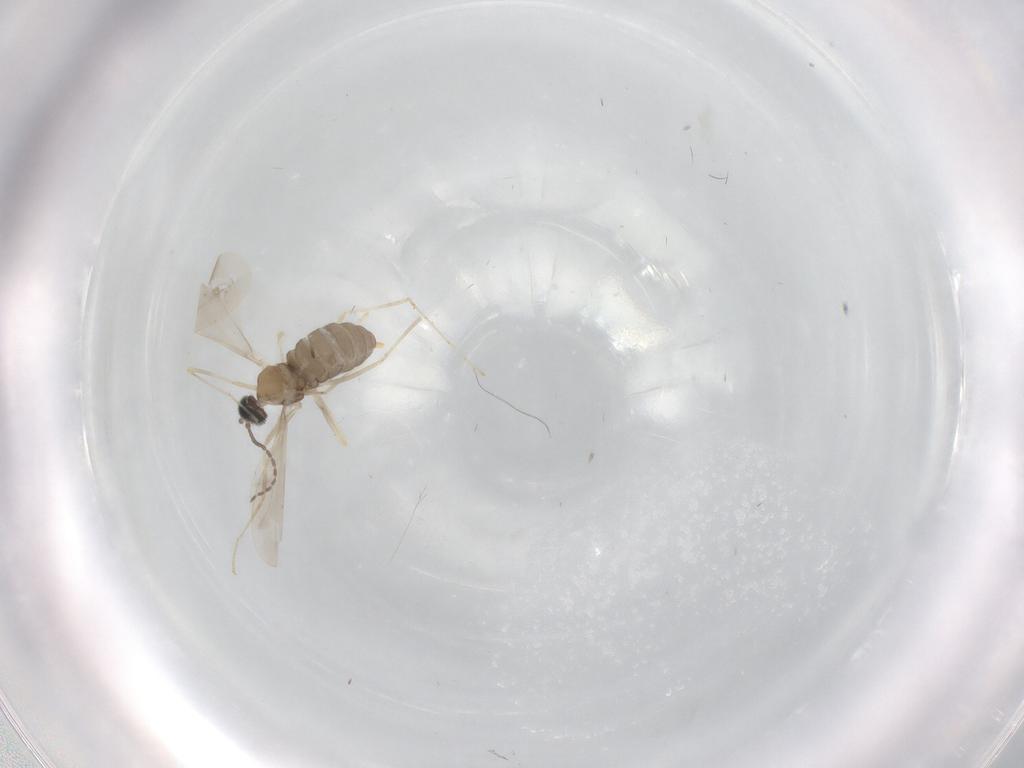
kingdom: Animalia
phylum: Arthropoda
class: Insecta
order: Diptera
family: Cecidomyiidae
